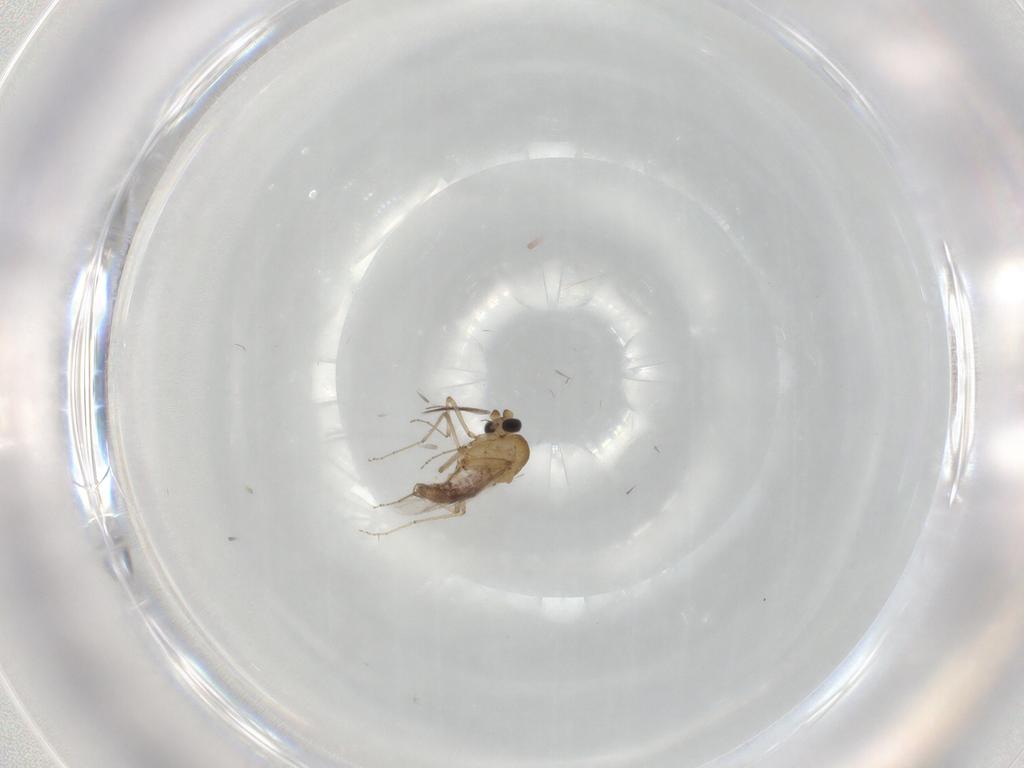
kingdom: Animalia
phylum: Arthropoda
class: Insecta
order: Diptera
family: Ceratopogonidae
